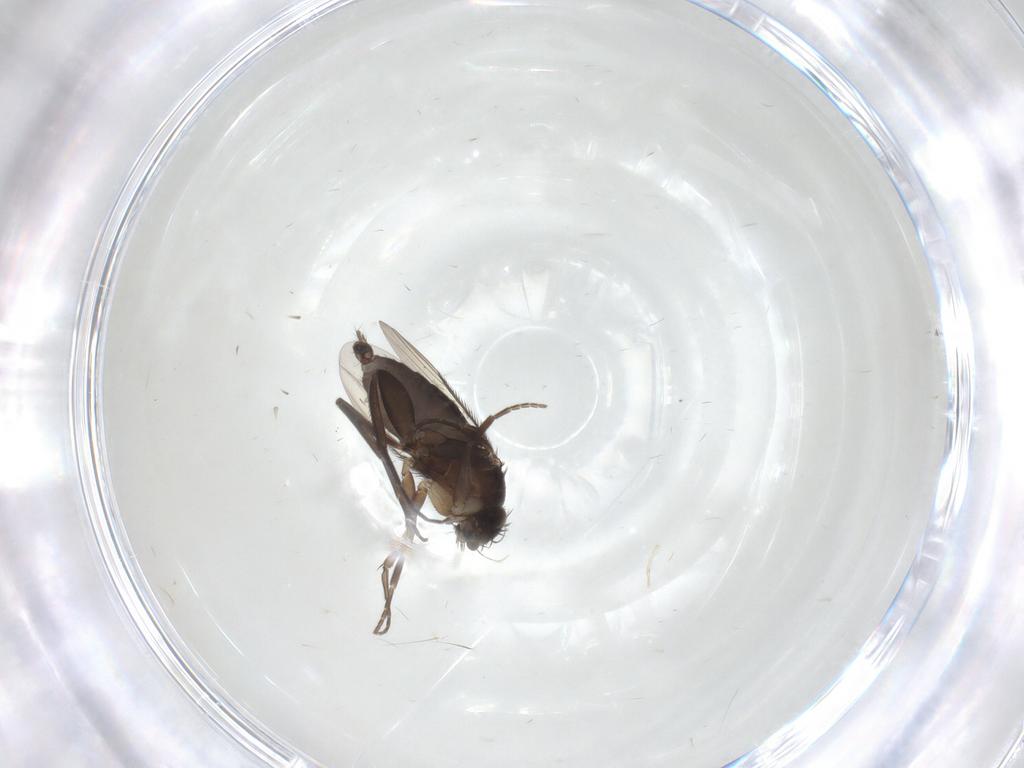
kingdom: Animalia
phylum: Arthropoda
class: Insecta
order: Diptera
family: Phoridae
